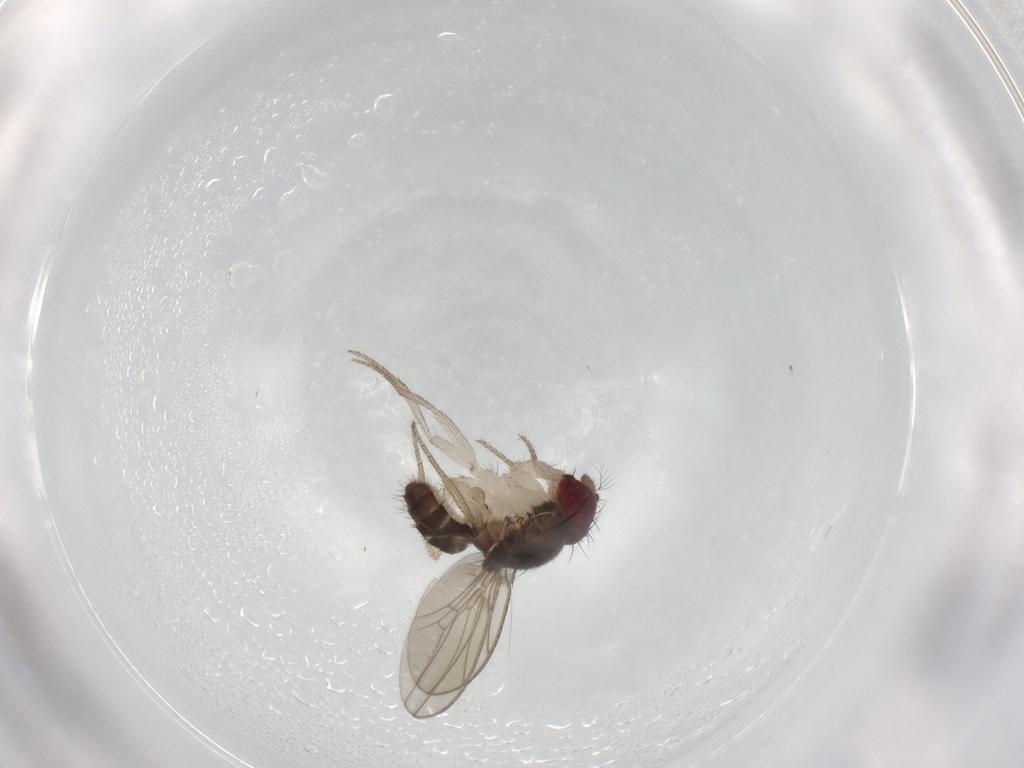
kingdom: Animalia
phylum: Arthropoda
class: Insecta
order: Diptera
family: Drosophilidae
